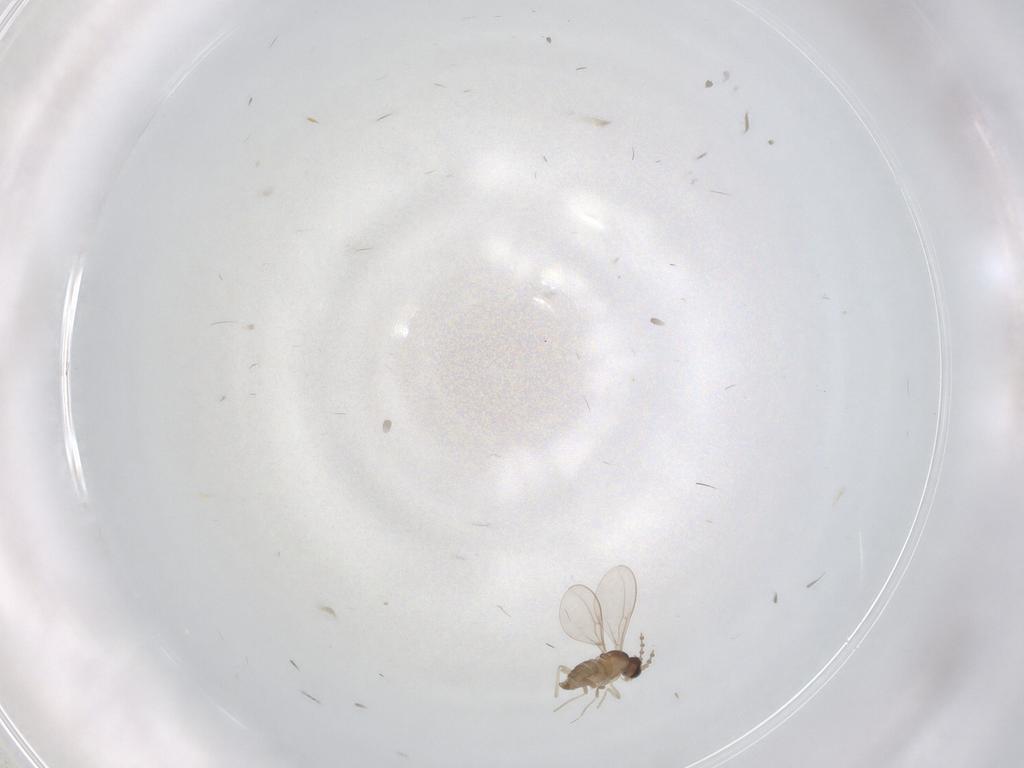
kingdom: Animalia
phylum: Arthropoda
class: Insecta
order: Diptera
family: Cecidomyiidae
